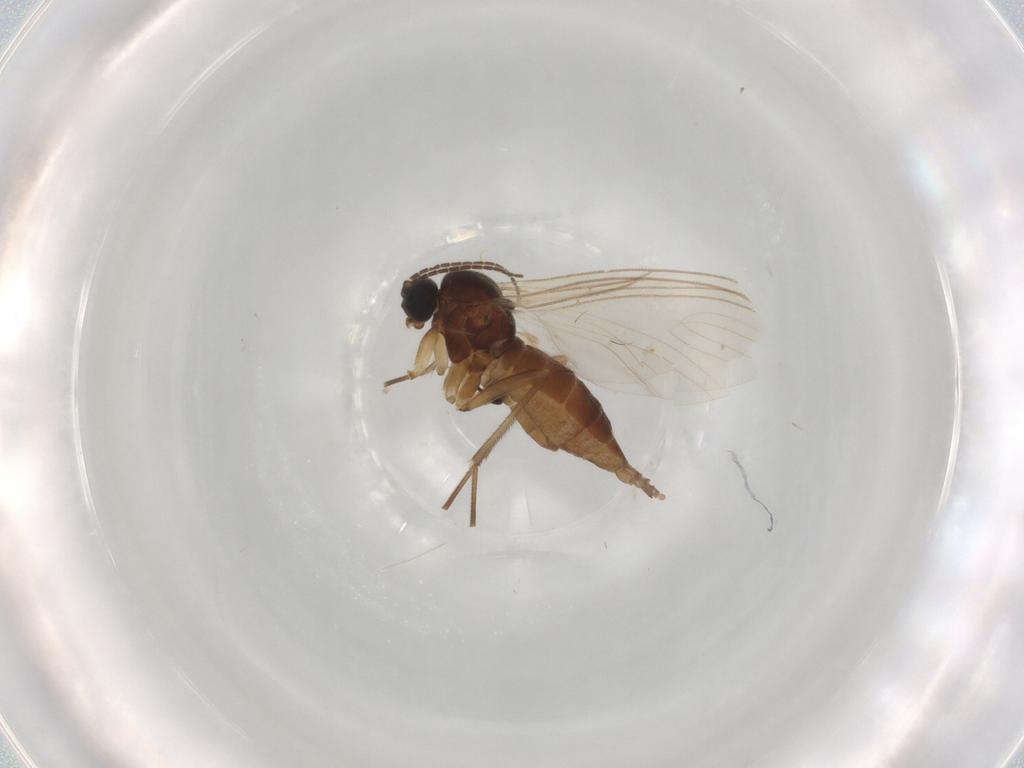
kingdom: Animalia
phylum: Arthropoda
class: Insecta
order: Diptera
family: Anthomyiidae
